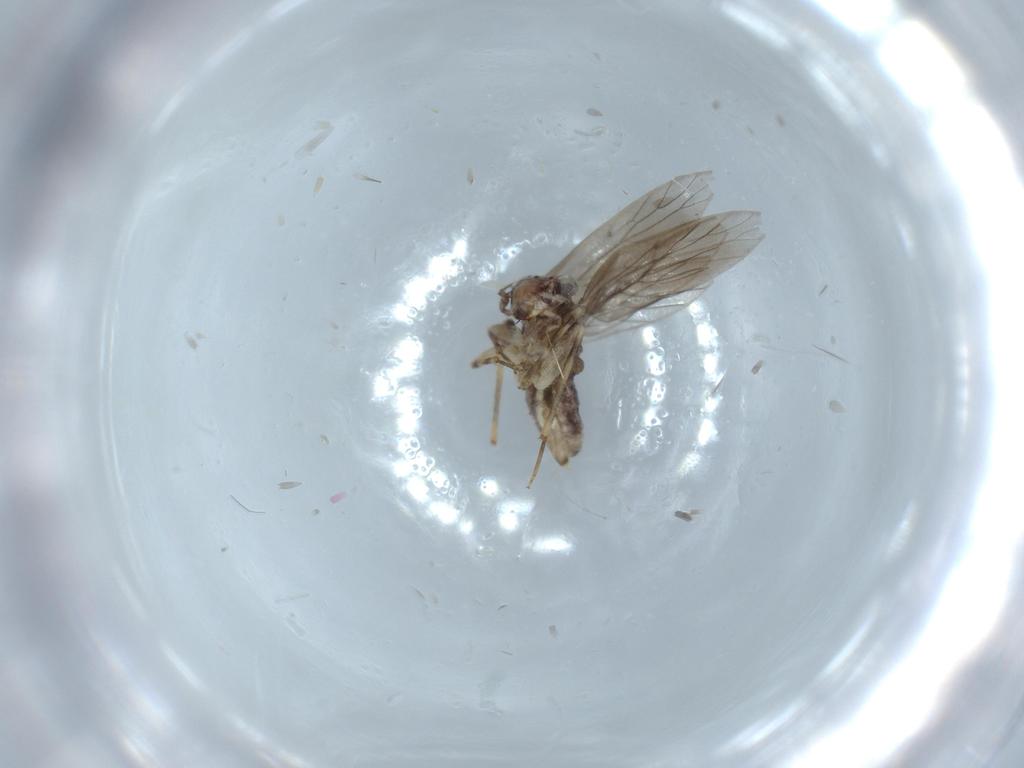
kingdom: Animalia
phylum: Arthropoda
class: Insecta
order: Psocodea
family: Lepidopsocidae
